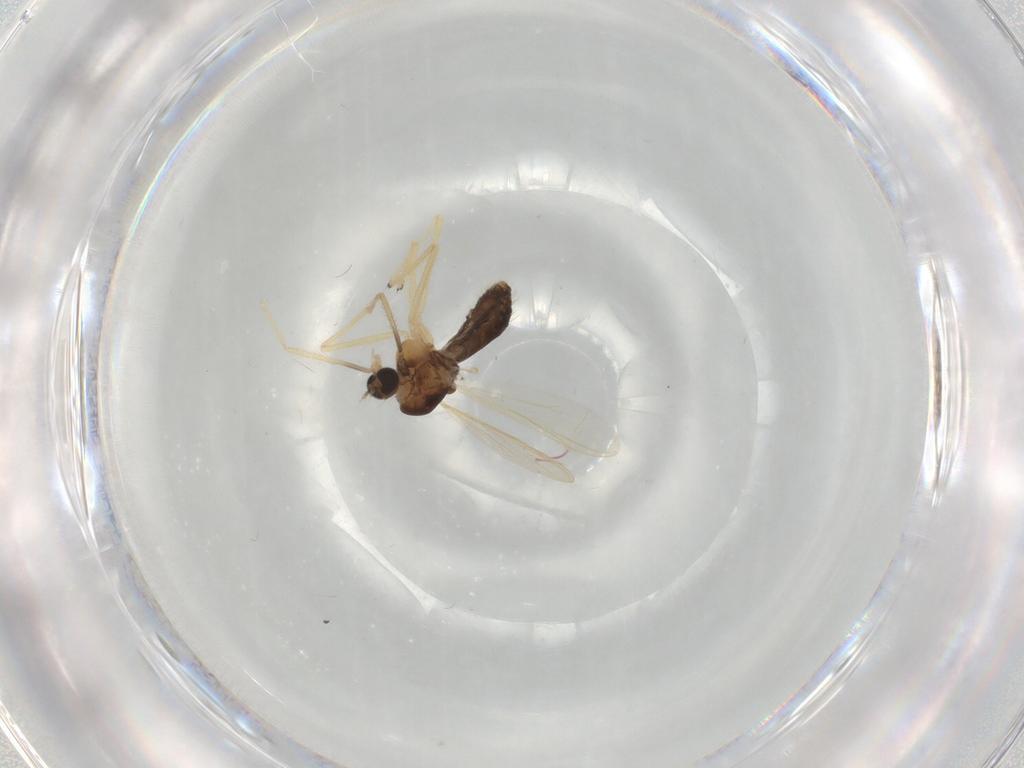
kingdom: Animalia
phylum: Arthropoda
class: Insecta
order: Diptera
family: Chironomidae
